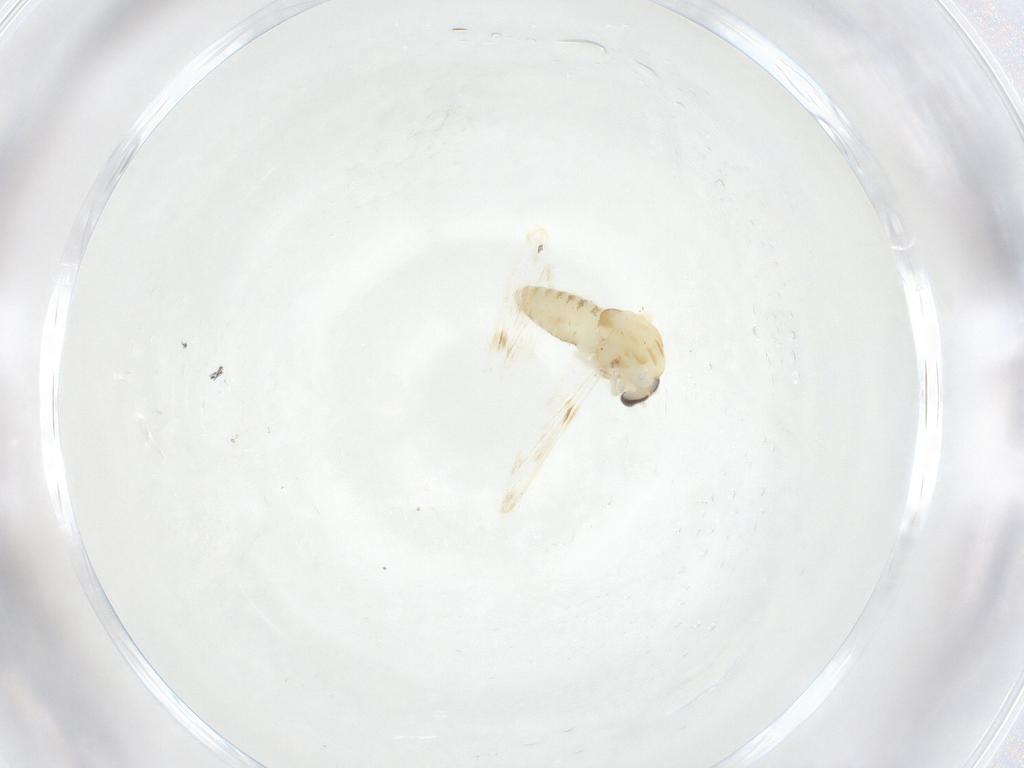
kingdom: Animalia
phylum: Arthropoda
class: Insecta
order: Diptera
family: Chironomidae
